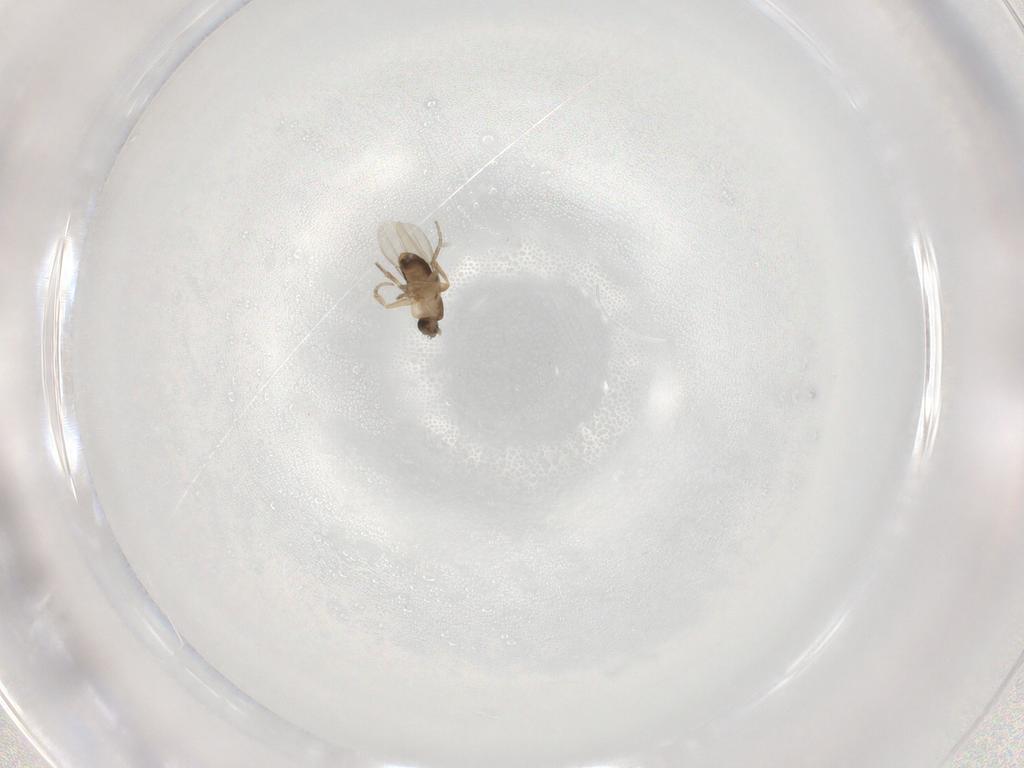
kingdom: Animalia
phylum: Arthropoda
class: Insecta
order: Diptera
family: Phoridae
